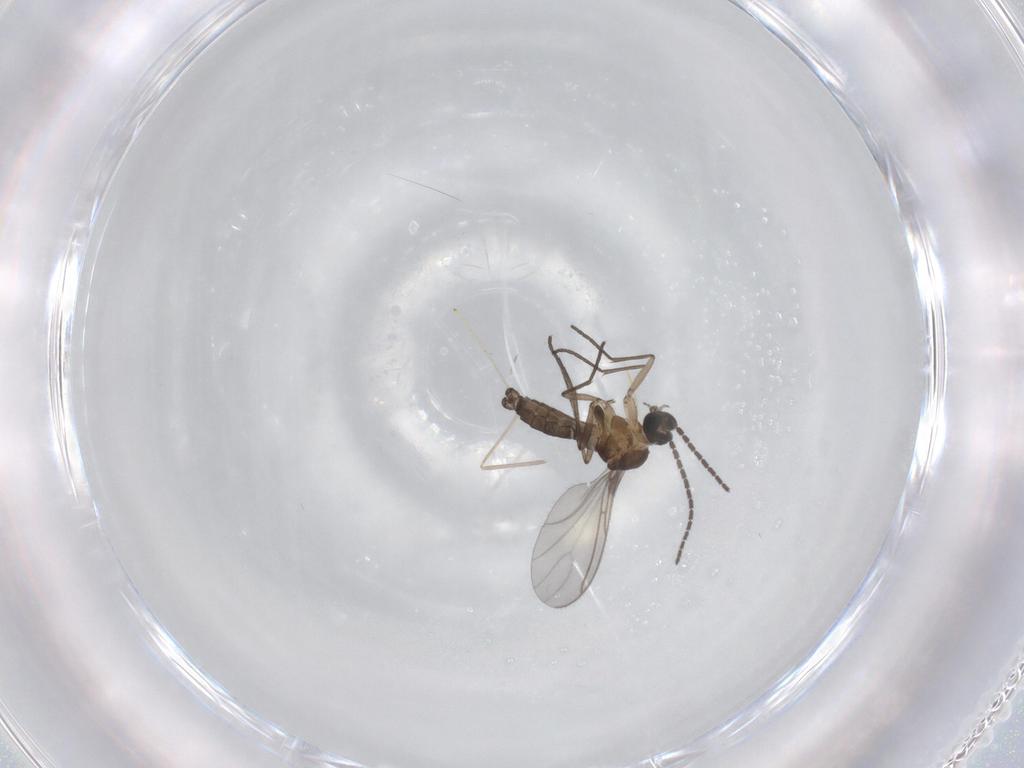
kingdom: Animalia
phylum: Arthropoda
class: Insecta
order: Diptera
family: Sciaridae
